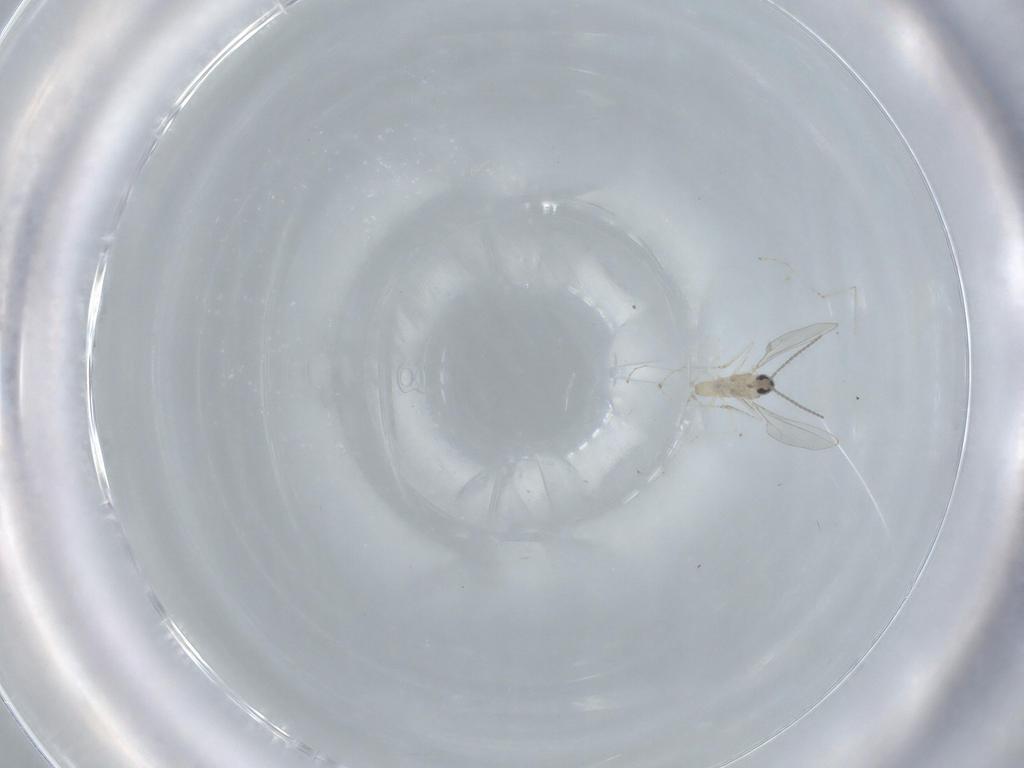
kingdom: Animalia
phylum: Arthropoda
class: Insecta
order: Diptera
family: Cecidomyiidae
